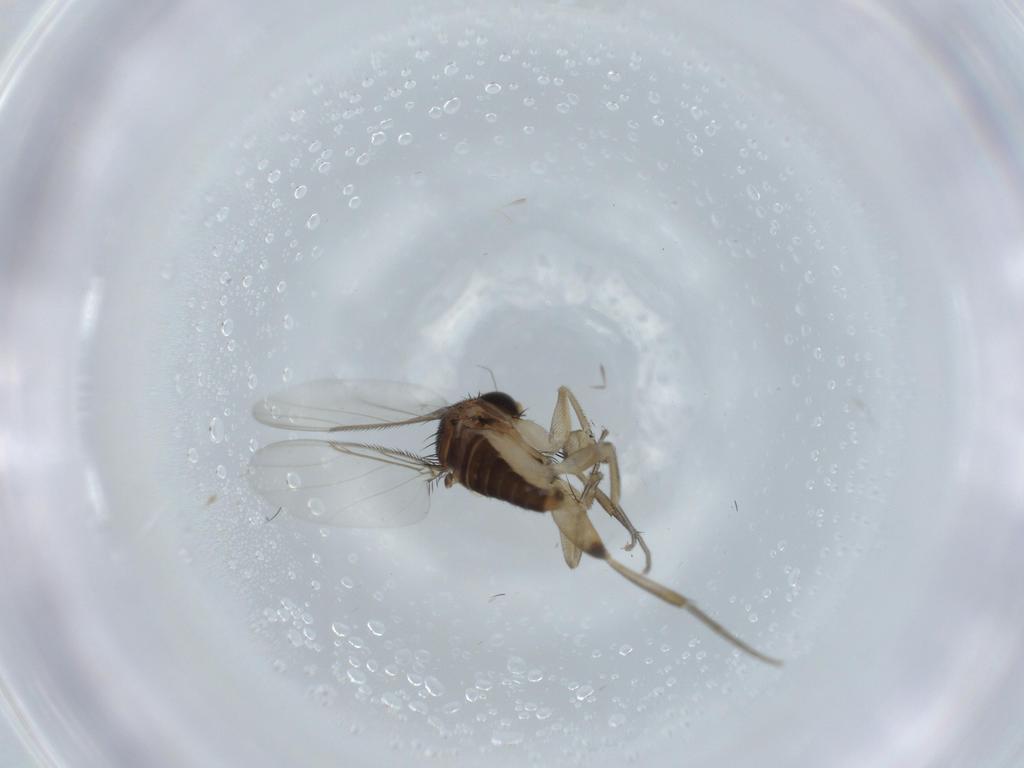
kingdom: Animalia
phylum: Arthropoda
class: Insecta
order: Diptera
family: Phoridae
